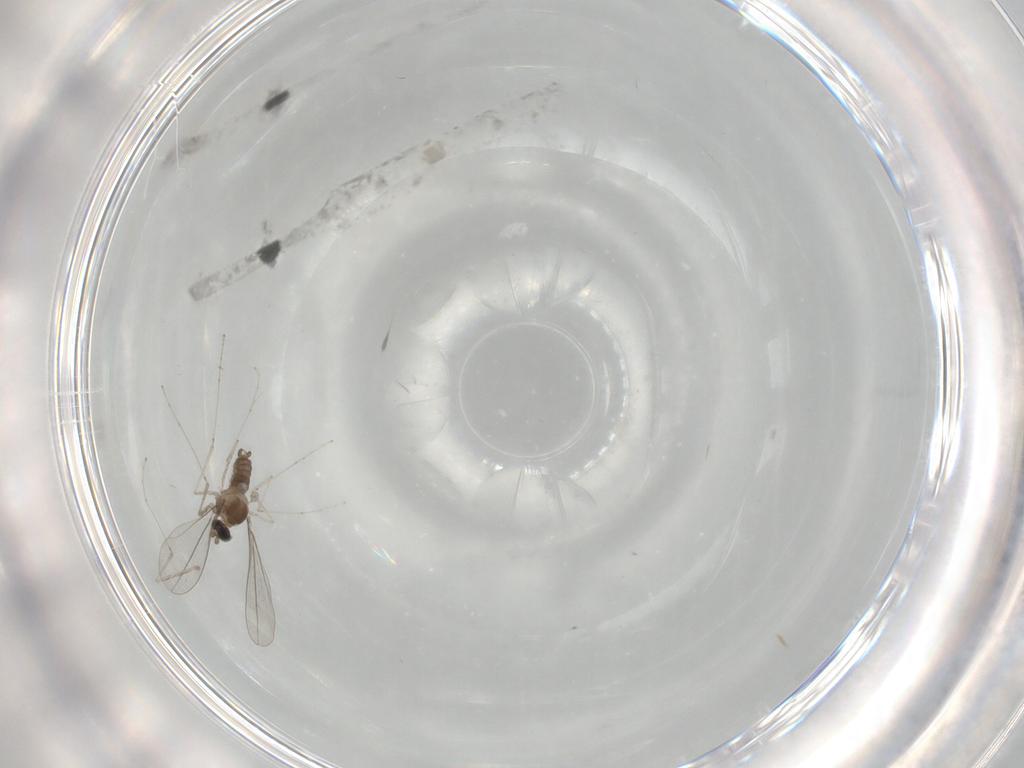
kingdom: Animalia
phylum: Arthropoda
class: Insecta
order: Diptera
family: Cecidomyiidae
